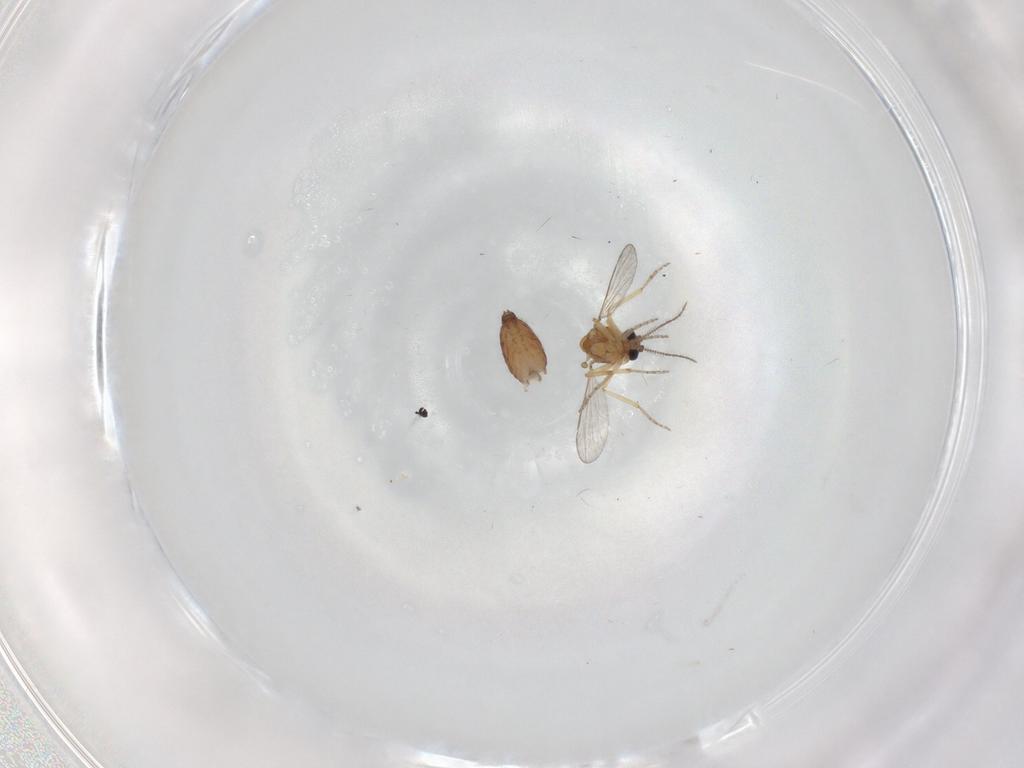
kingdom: Animalia
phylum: Arthropoda
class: Insecta
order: Diptera
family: Ceratopogonidae
